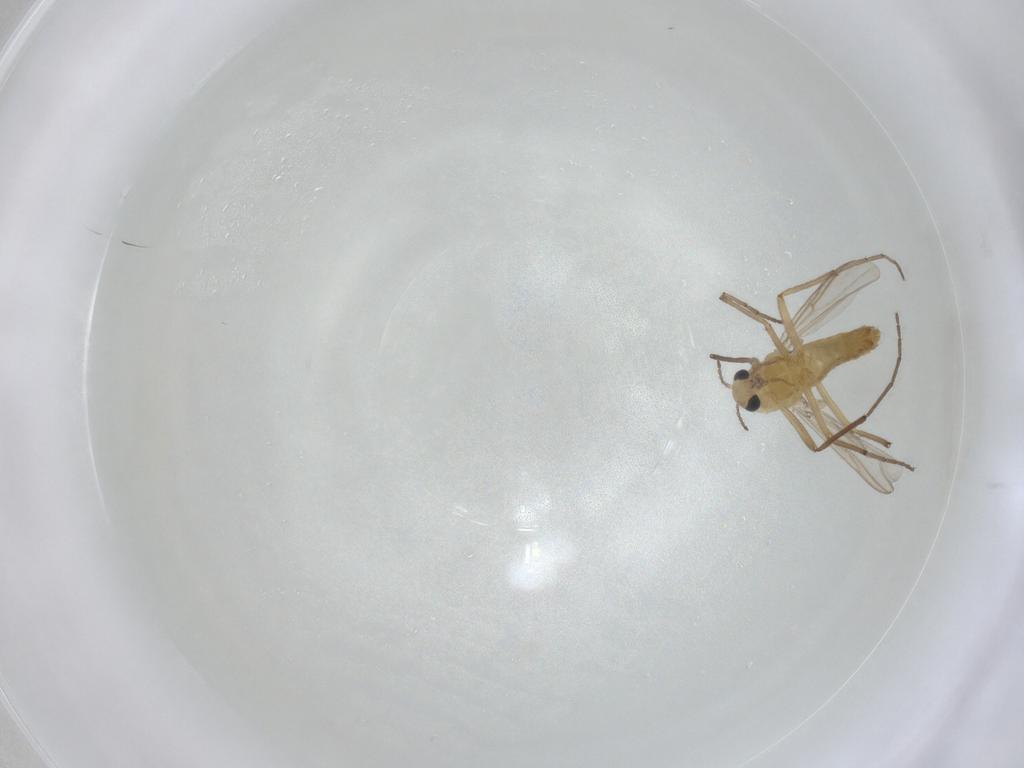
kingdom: Animalia
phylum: Arthropoda
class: Insecta
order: Diptera
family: Chironomidae
